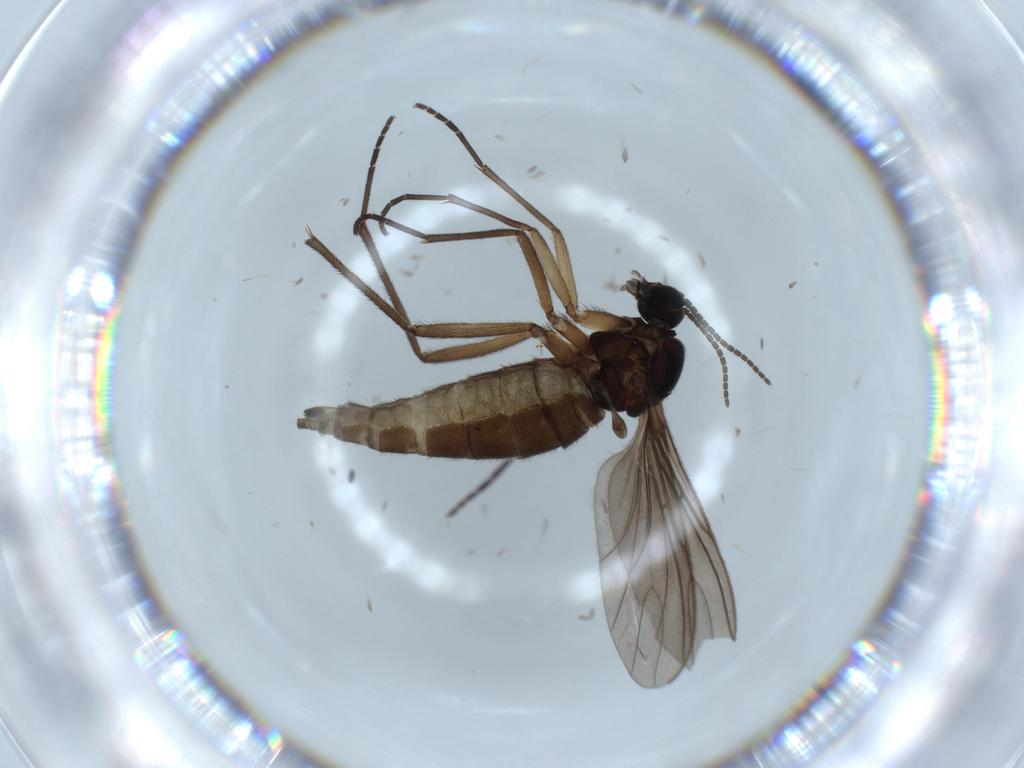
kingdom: Animalia
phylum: Arthropoda
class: Insecta
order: Diptera
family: Sciaridae
